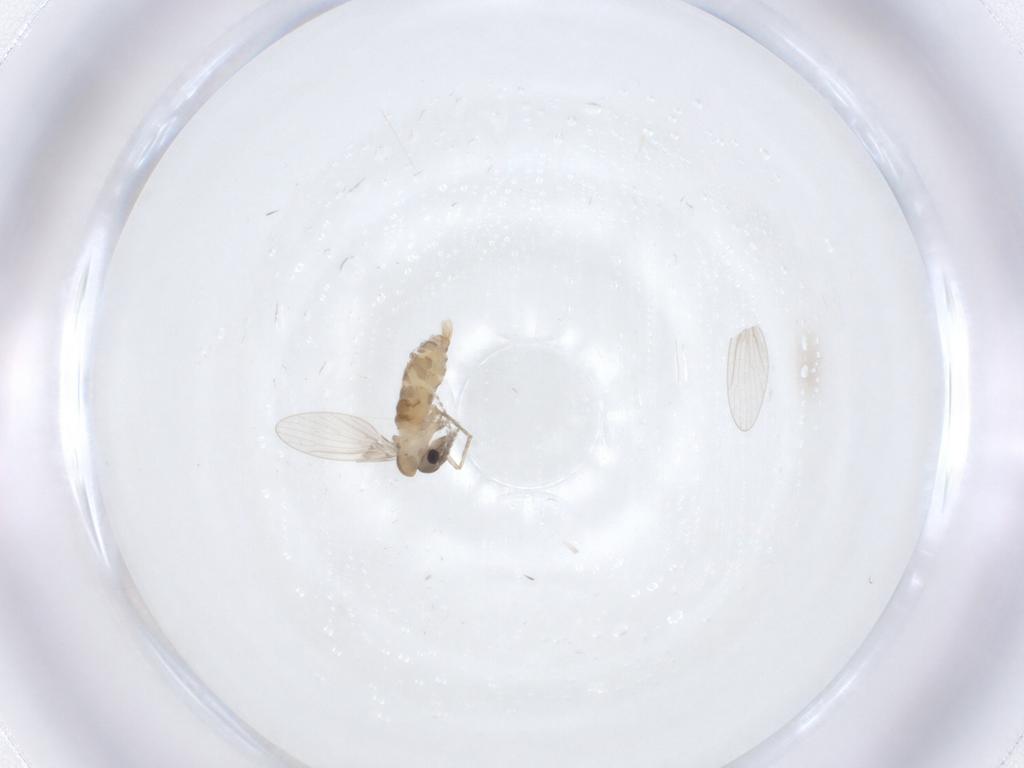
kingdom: Animalia
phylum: Arthropoda
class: Insecta
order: Diptera
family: Psychodidae
